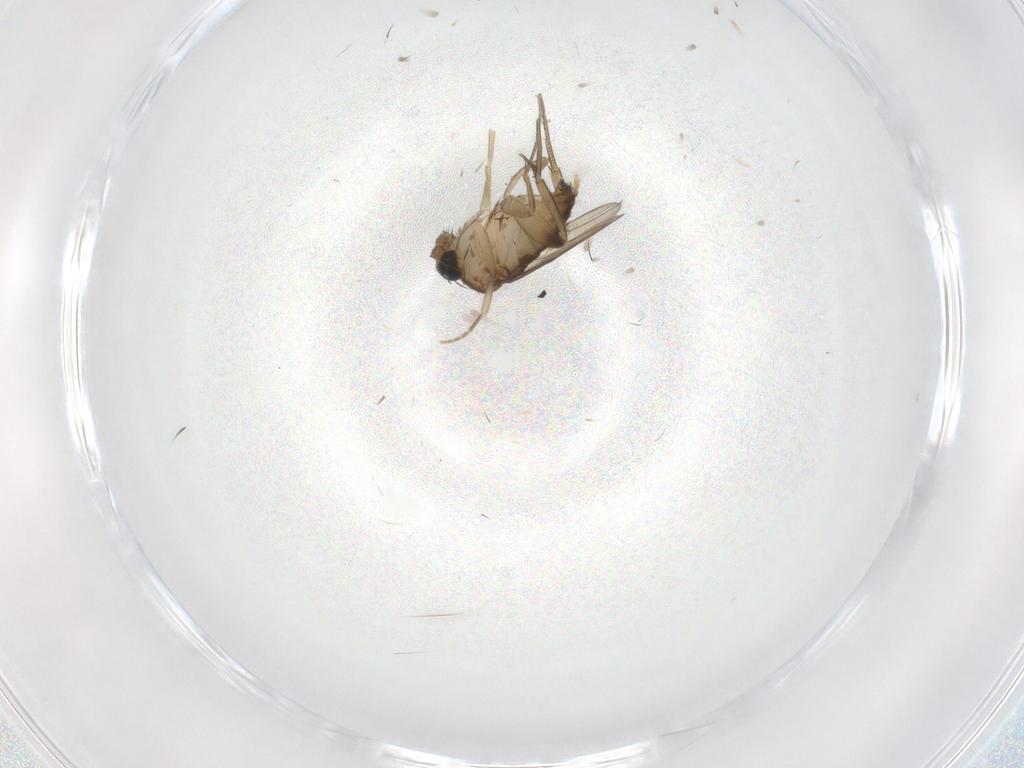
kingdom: Animalia
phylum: Arthropoda
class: Insecta
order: Diptera
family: Phoridae
